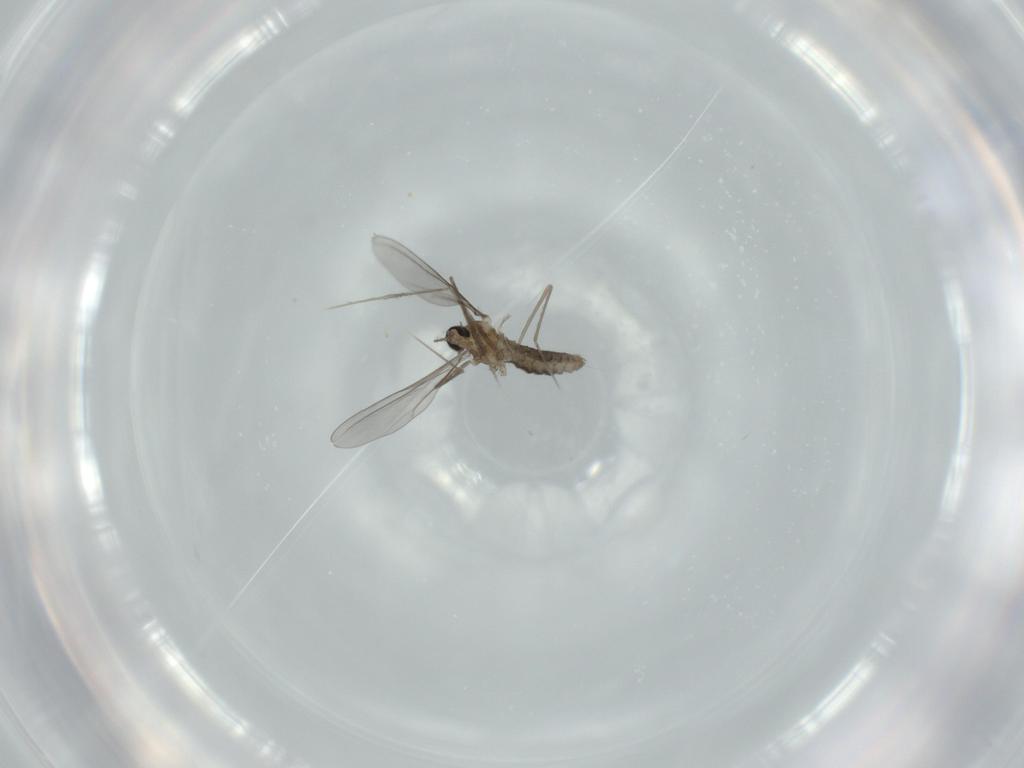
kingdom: Animalia
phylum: Arthropoda
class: Insecta
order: Diptera
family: Cecidomyiidae
